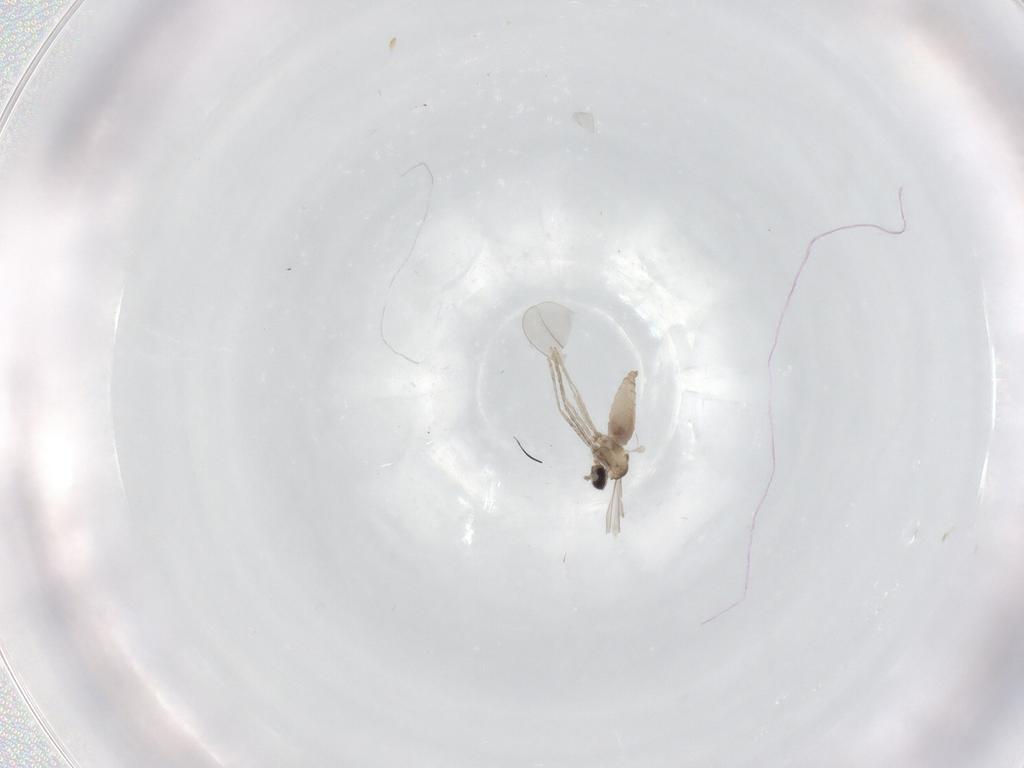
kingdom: Animalia
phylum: Arthropoda
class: Insecta
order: Diptera
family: Cecidomyiidae
